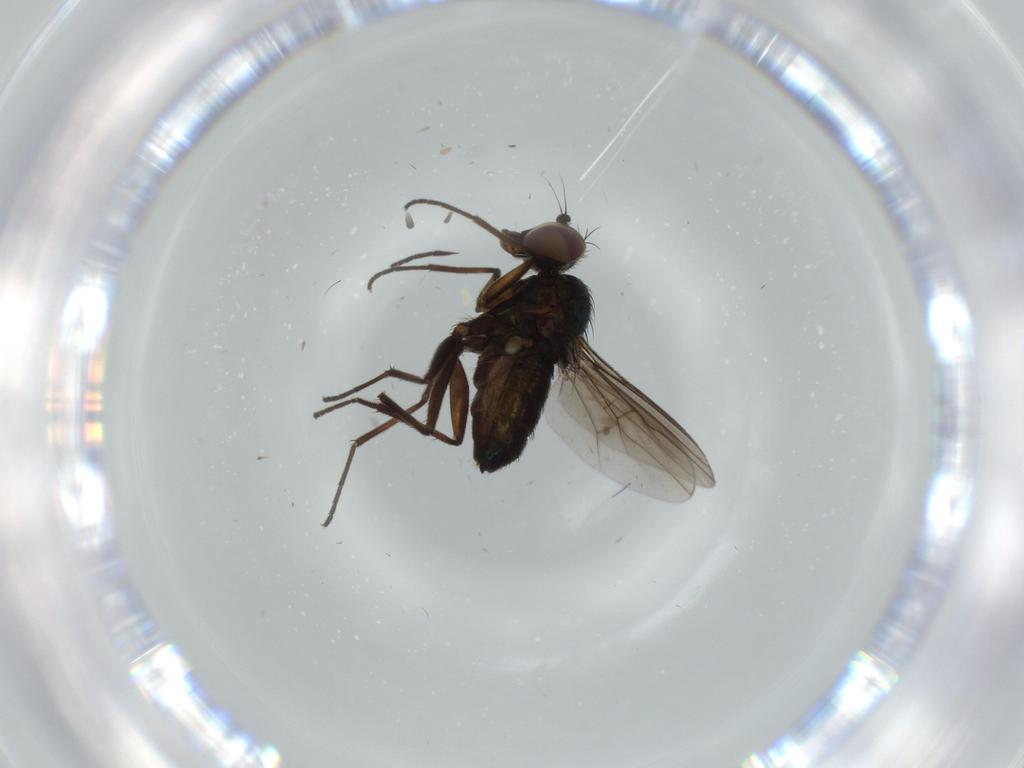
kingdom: Animalia
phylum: Arthropoda
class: Insecta
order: Diptera
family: Dolichopodidae
